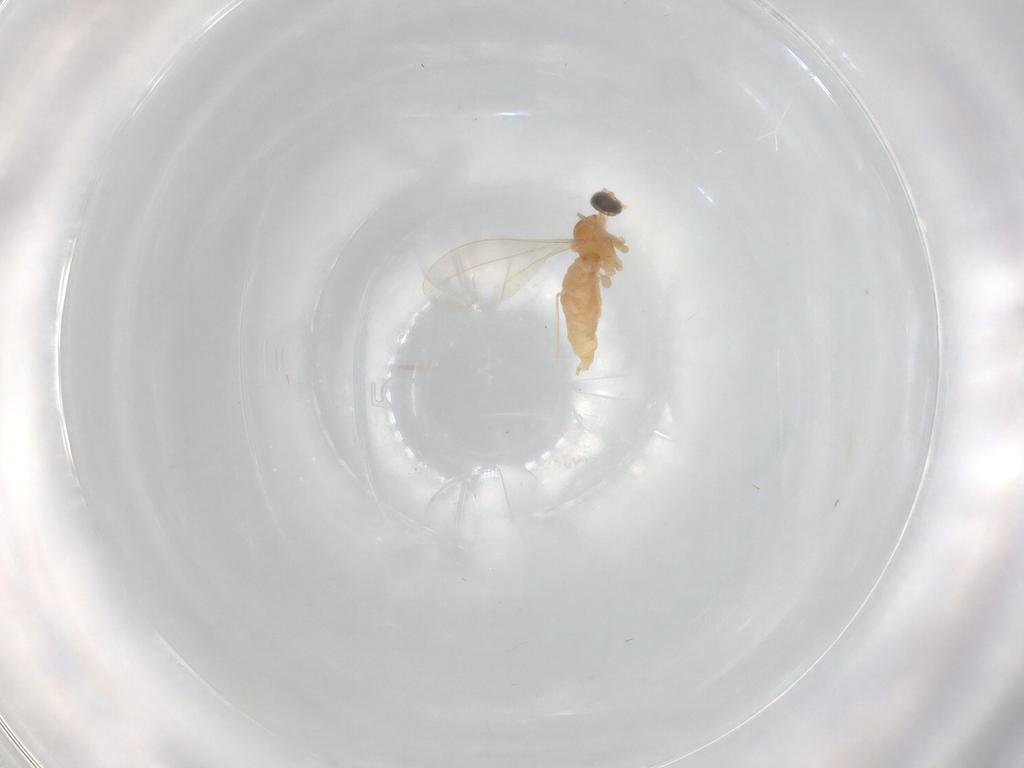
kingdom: Animalia
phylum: Arthropoda
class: Insecta
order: Diptera
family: Cecidomyiidae
